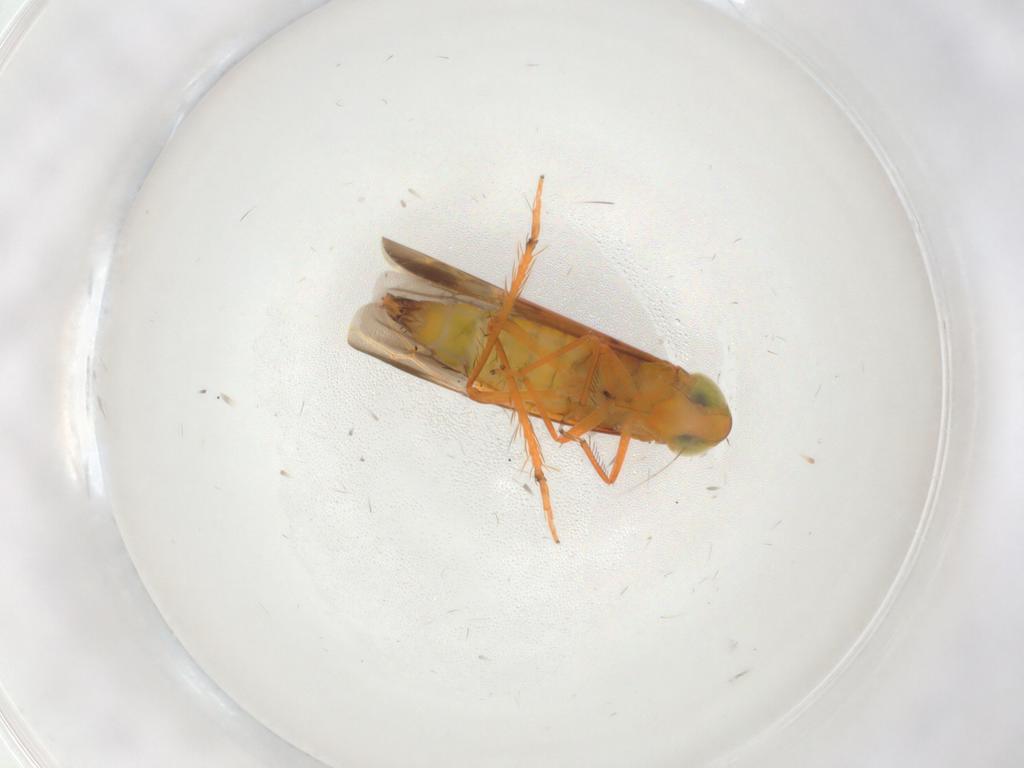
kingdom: Animalia
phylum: Arthropoda
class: Insecta
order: Hemiptera
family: Cicadellidae
